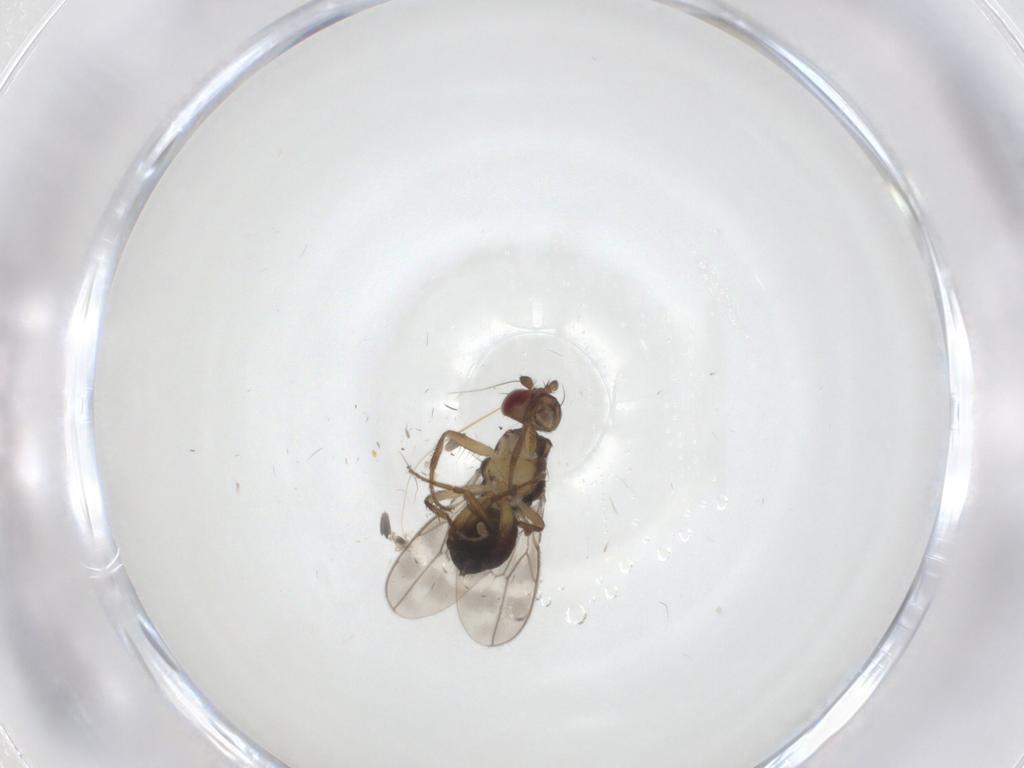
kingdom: Animalia
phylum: Arthropoda
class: Insecta
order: Diptera
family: Sphaeroceridae
